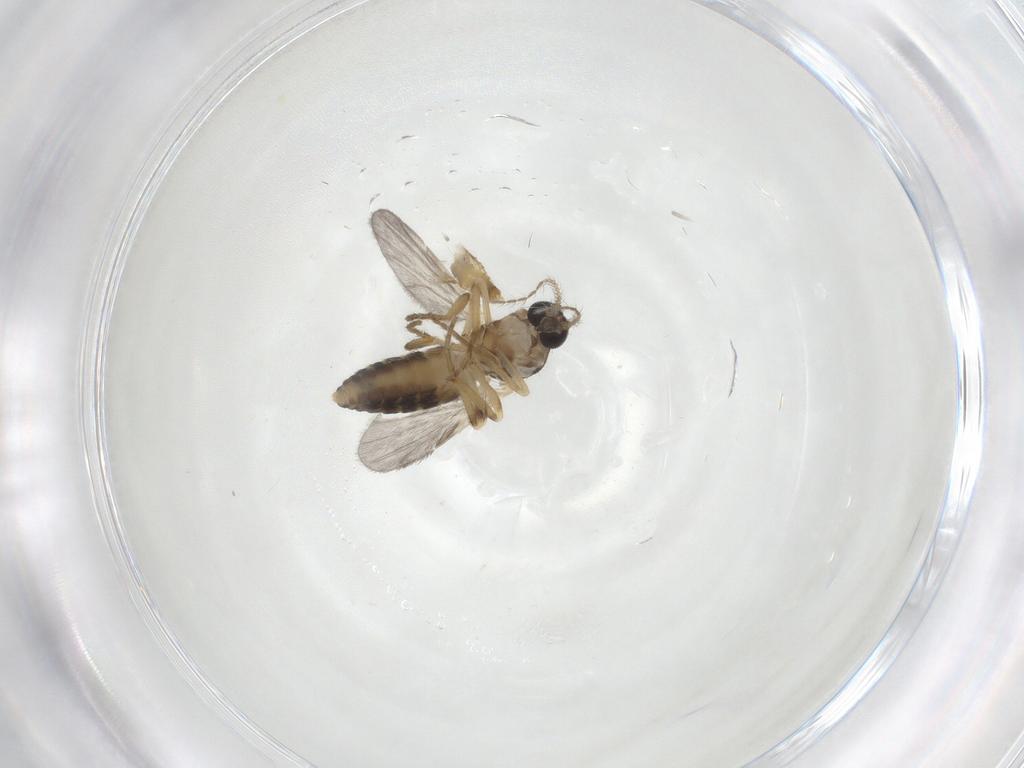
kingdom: Animalia
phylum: Arthropoda
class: Insecta
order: Diptera
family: Ceratopogonidae
